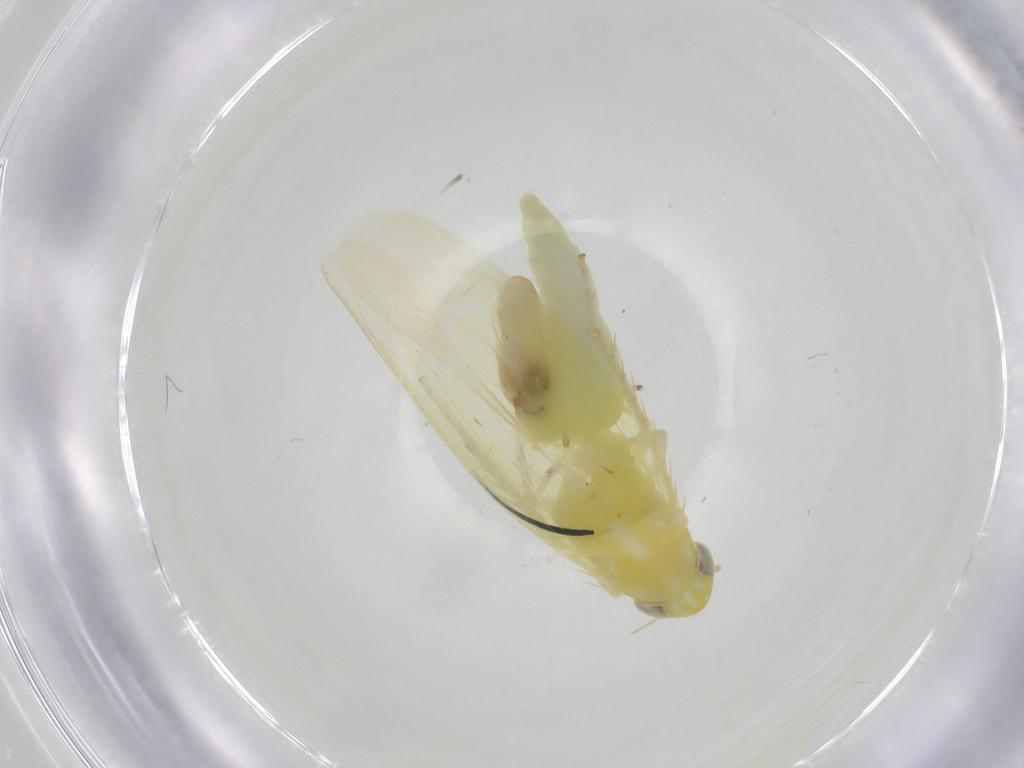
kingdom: Animalia
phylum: Arthropoda
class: Insecta
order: Hemiptera
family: Cicadellidae
